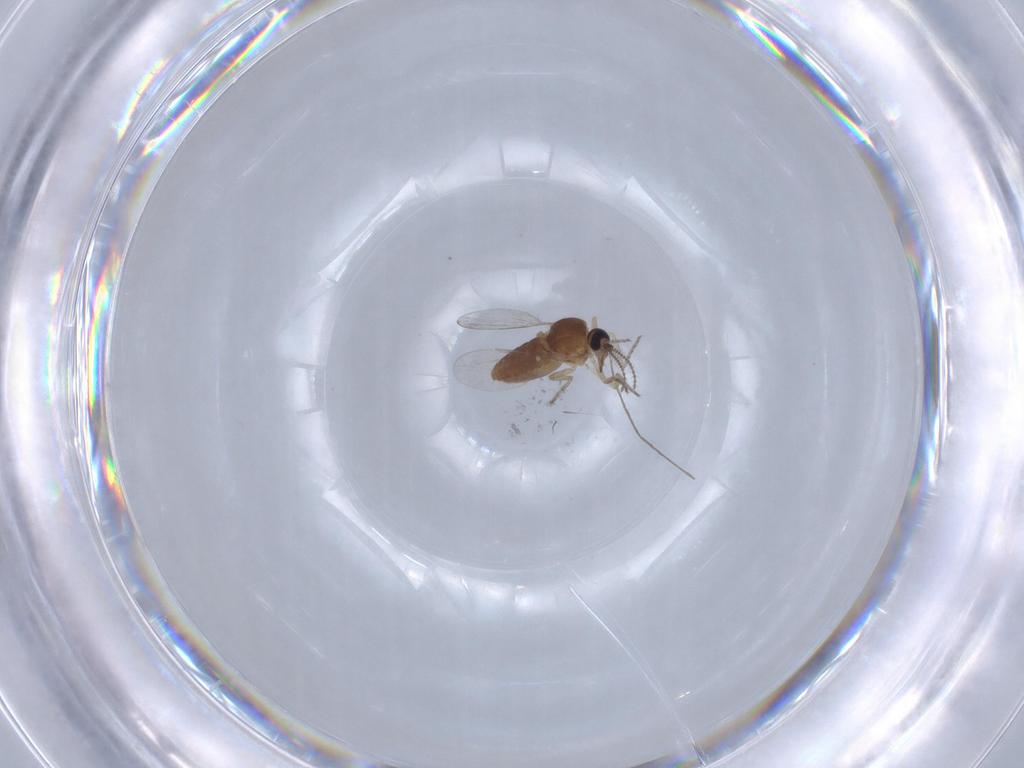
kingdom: Animalia
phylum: Arthropoda
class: Insecta
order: Diptera
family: Ceratopogonidae
